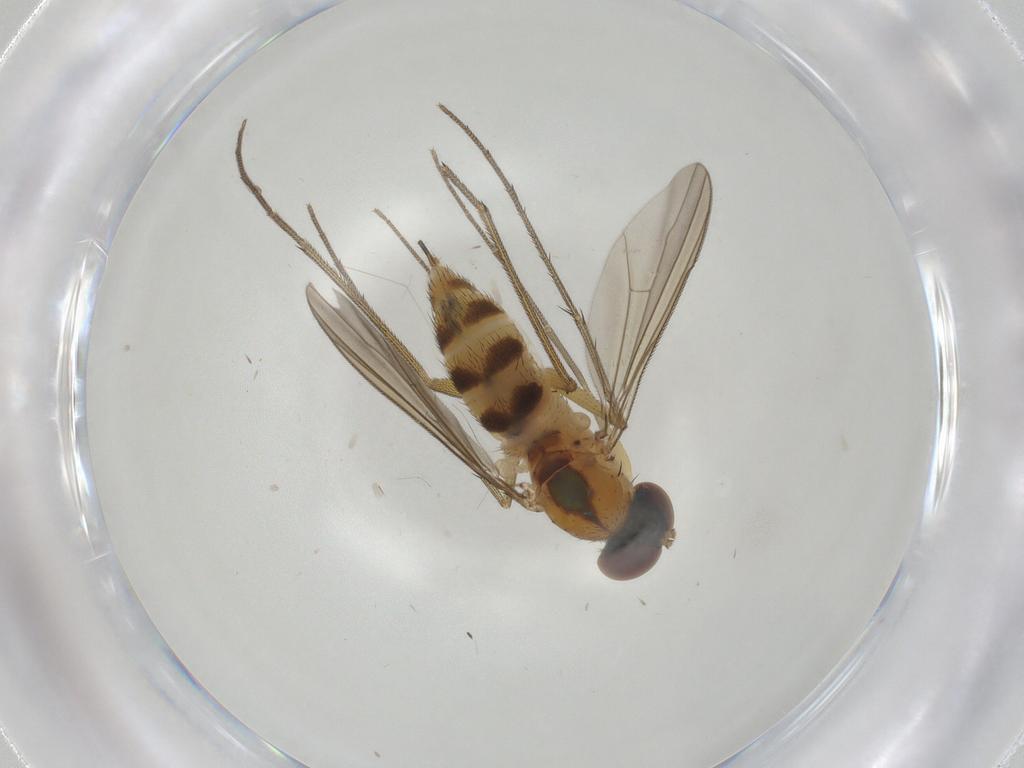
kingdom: Animalia
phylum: Arthropoda
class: Insecta
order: Diptera
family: Dolichopodidae
